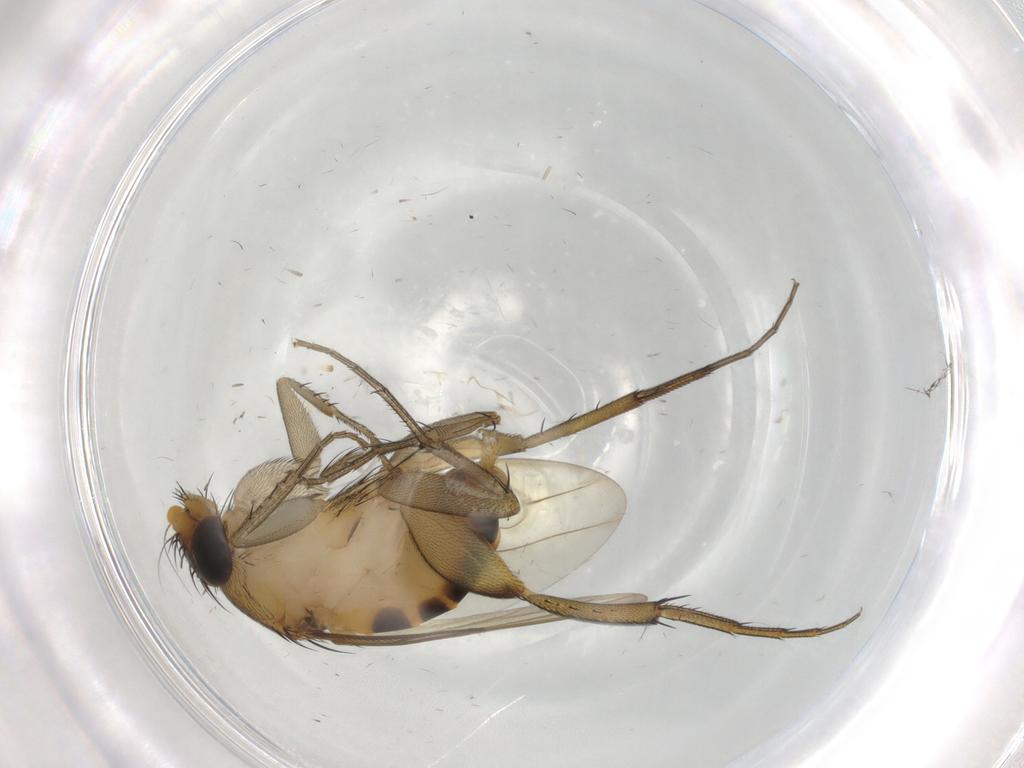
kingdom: Animalia
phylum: Arthropoda
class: Insecta
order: Diptera
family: Phoridae
